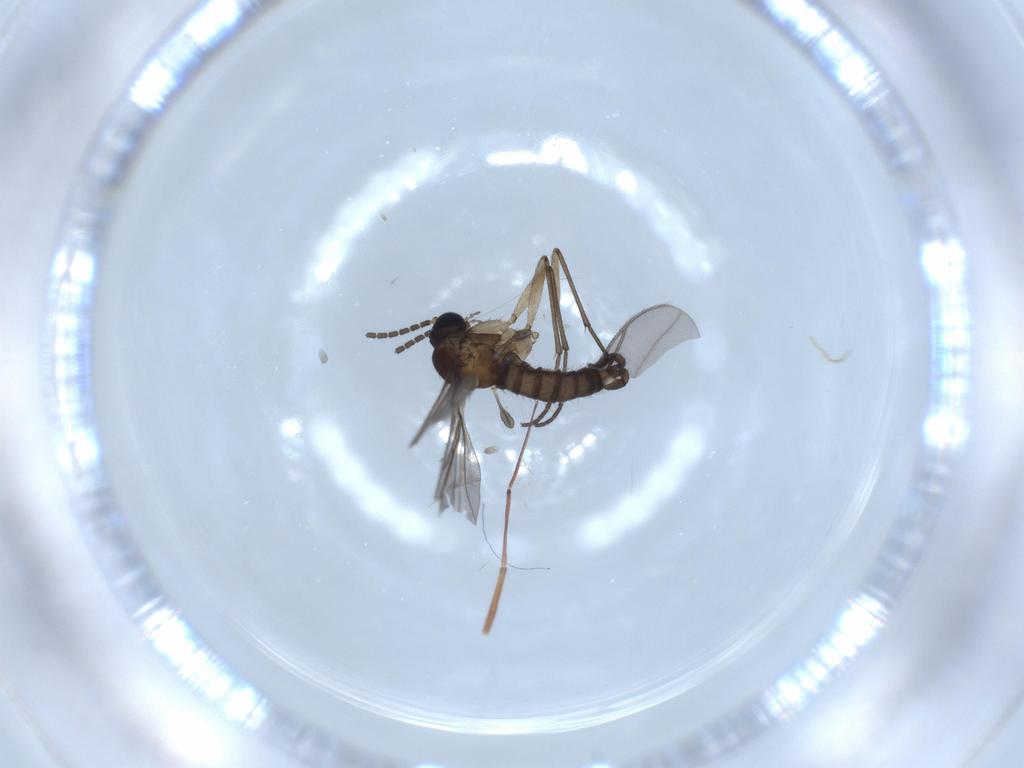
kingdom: Animalia
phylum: Arthropoda
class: Insecta
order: Diptera
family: Sciaridae
